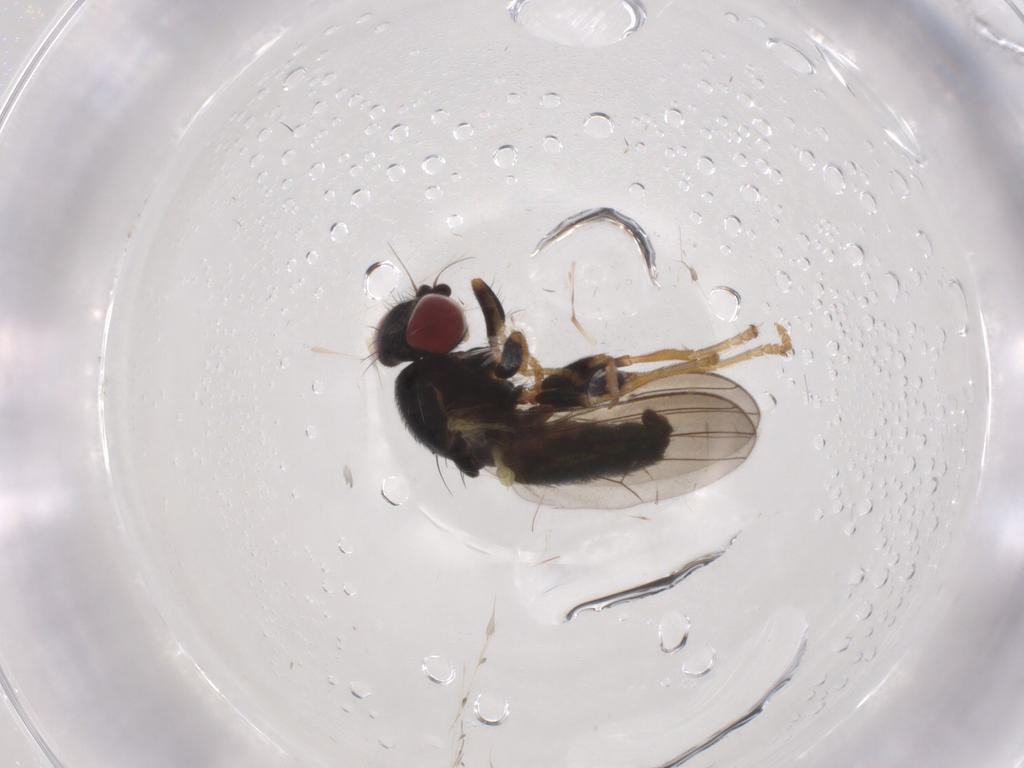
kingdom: Animalia
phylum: Arthropoda
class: Insecta
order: Diptera
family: Chamaemyiidae
